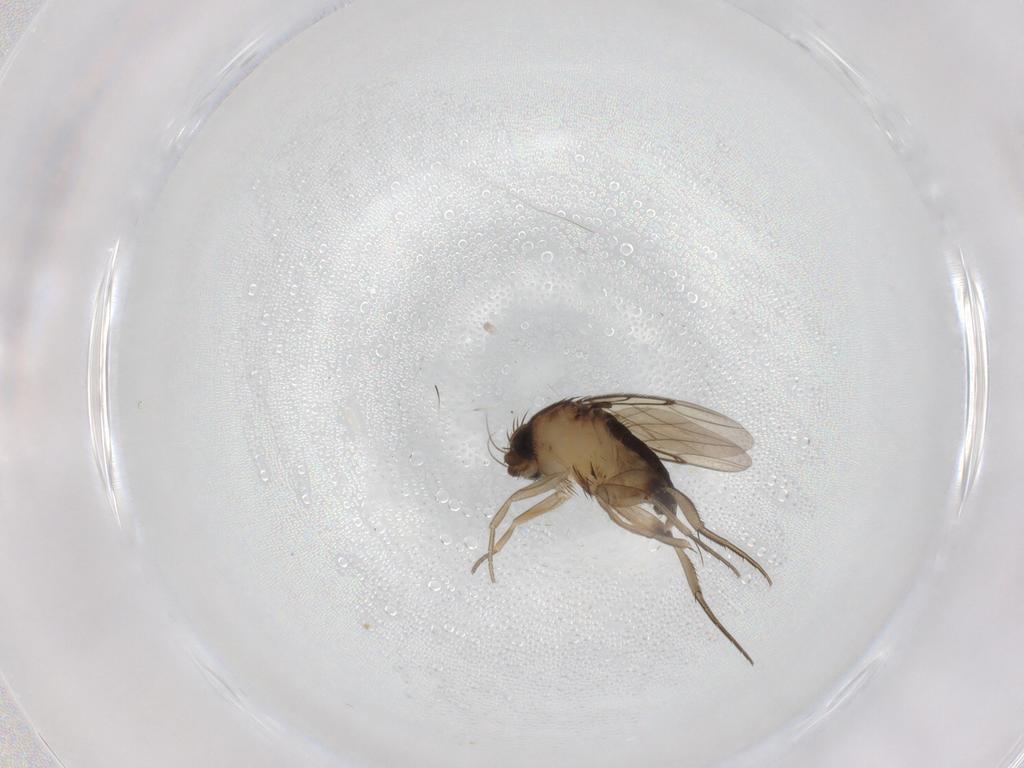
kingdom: Animalia
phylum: Arthropoda
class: Insecta
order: Diptera
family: Phoridae
